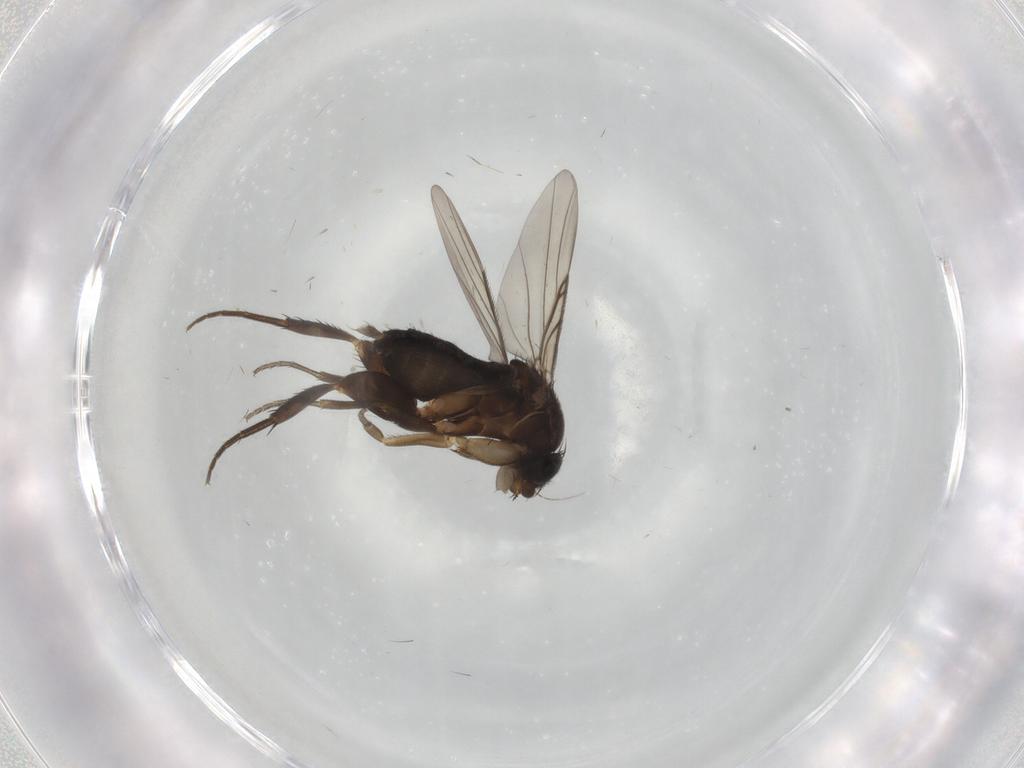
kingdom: Animalia
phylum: Arthropoda
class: Insecta
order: Diptera
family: Phoridae
